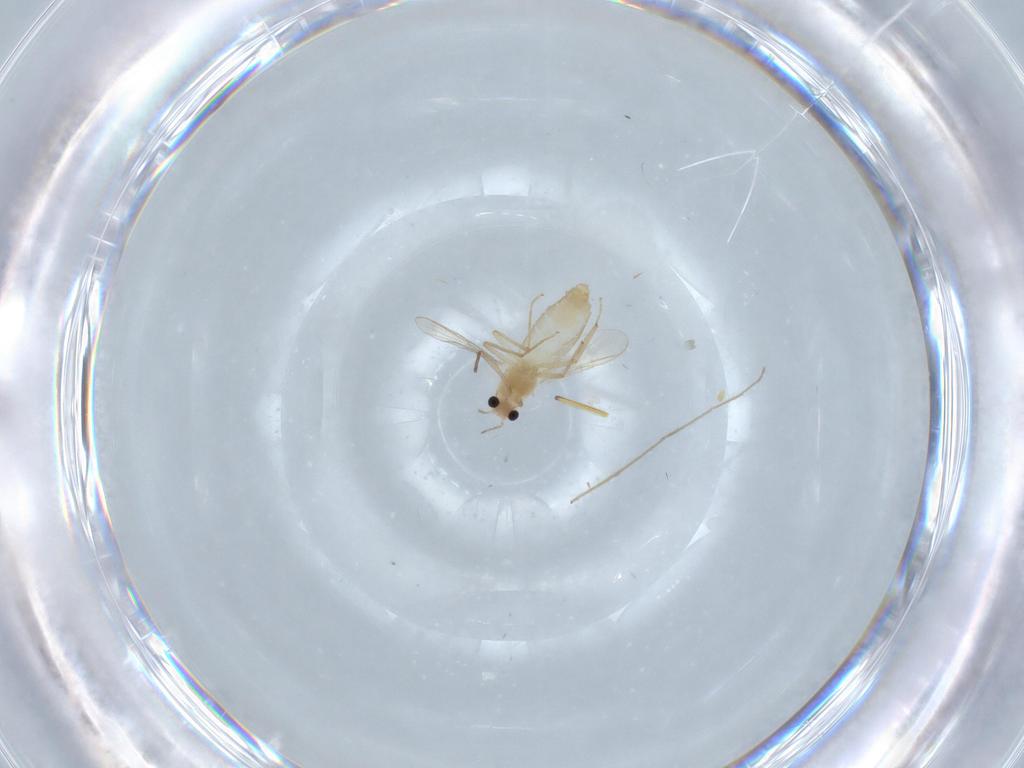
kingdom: Animalia
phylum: Arthropoda
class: Insecta
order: Diptera
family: Chironomidae
